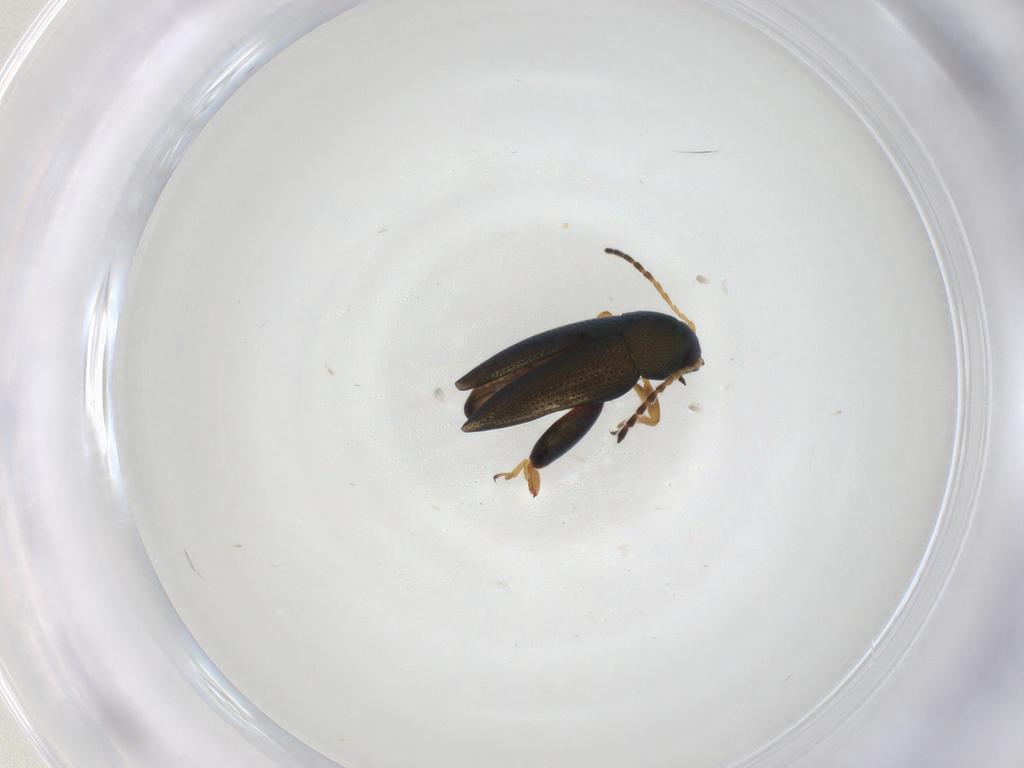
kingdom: Animalia
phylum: Arthropoda
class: Insecta
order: Coleoptera
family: Chrysomelidae
